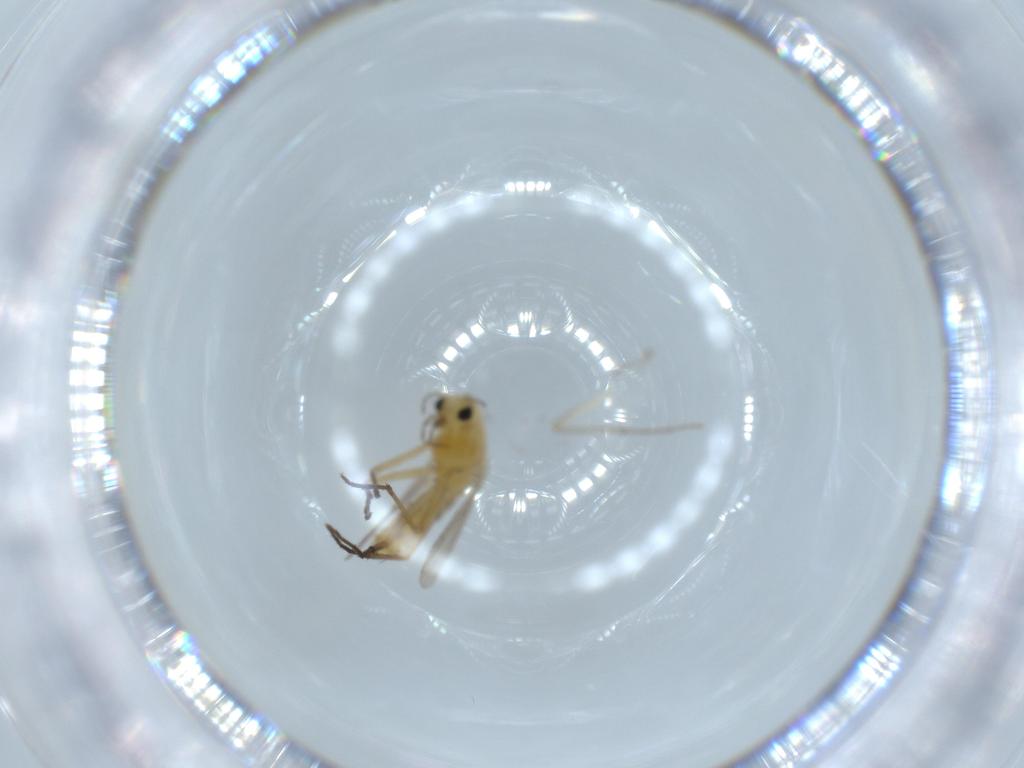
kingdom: Animalia
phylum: Arthropoda
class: Insecta
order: Diptera
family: Chironomidae
